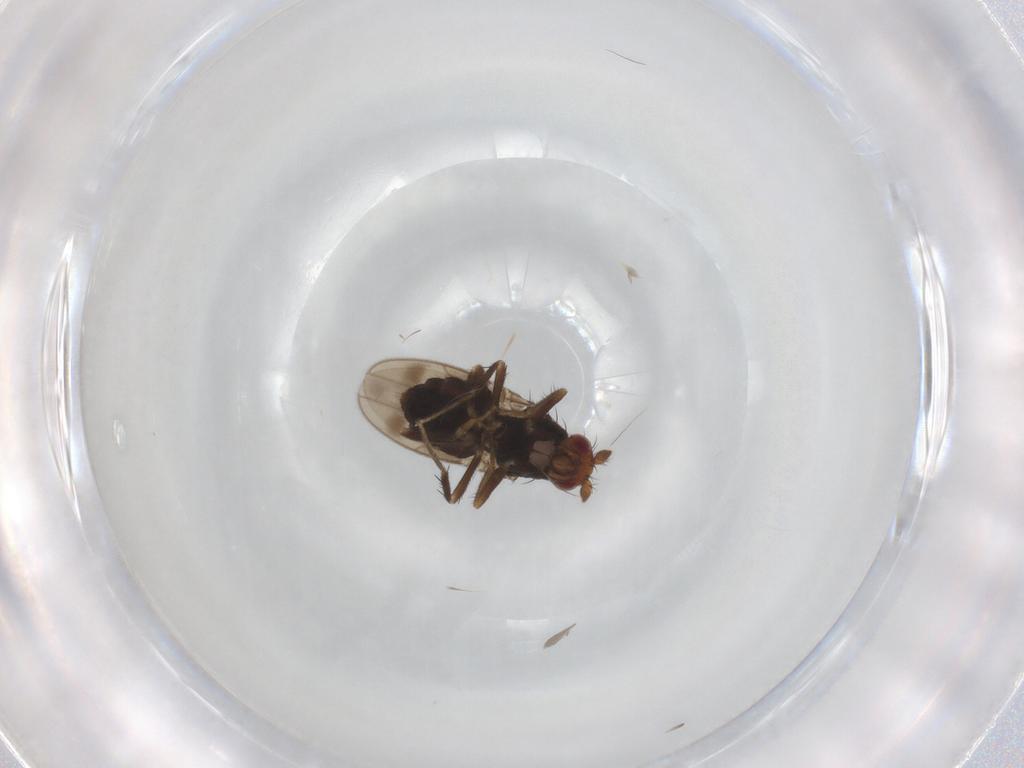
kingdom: Animalia
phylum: Arthropoda
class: Insecta
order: Diptera
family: Sphaeroceridae
